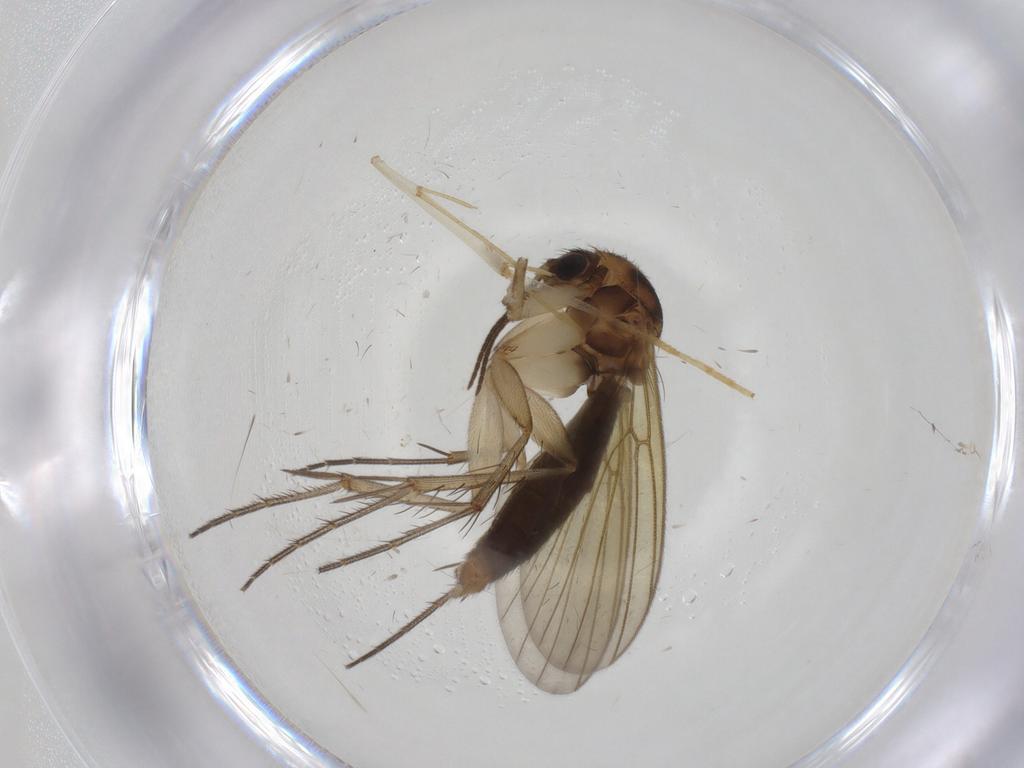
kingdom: Animalia
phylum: Arthropoda
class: Insecta
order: Diptera
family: Mycetophilidae
